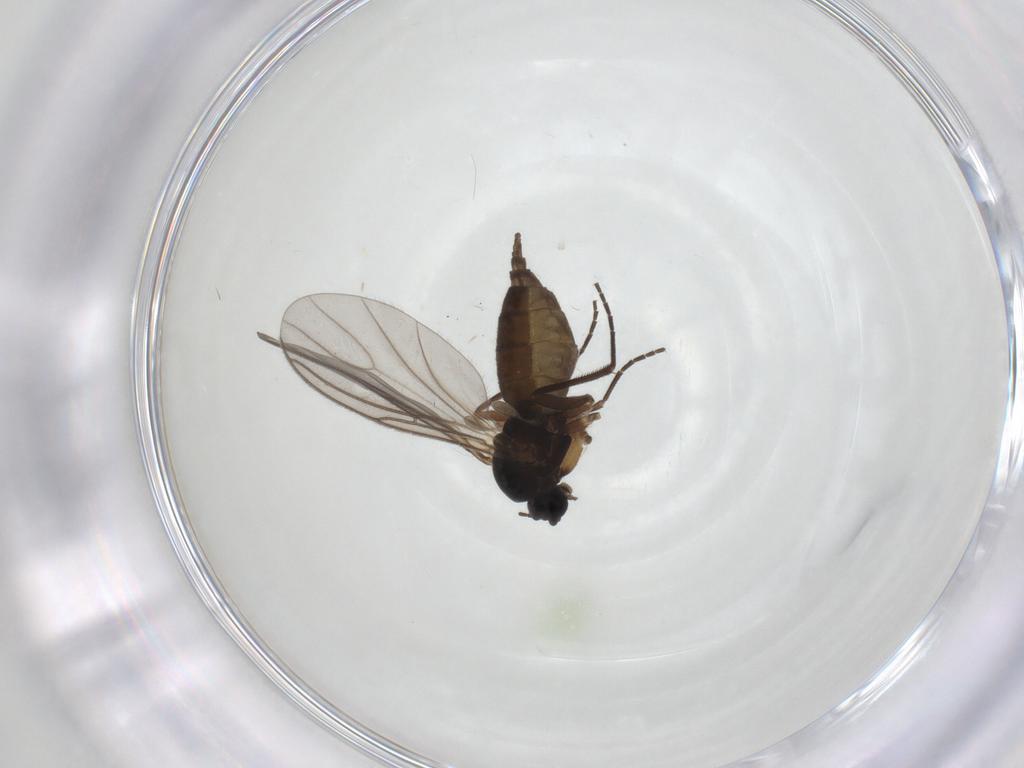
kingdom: Animalia
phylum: Arthropoda
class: Insecta
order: Diptera
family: Sciaridae
